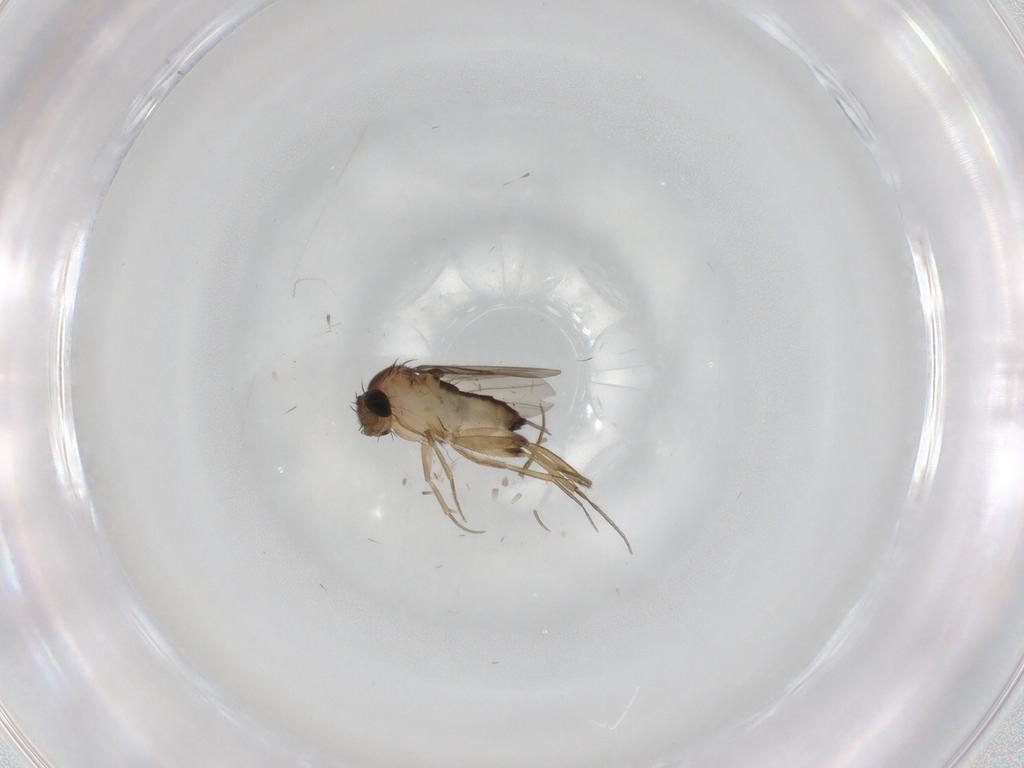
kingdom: Animalia
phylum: Arthropoda
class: Insecta
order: Diptera
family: Phoridae
